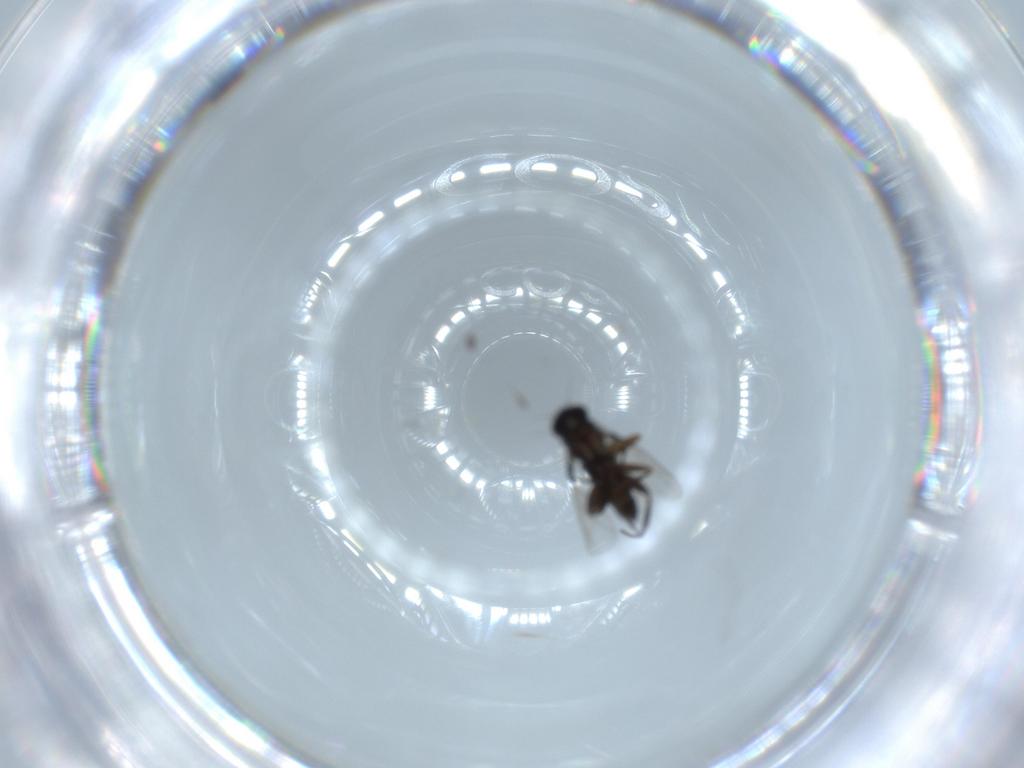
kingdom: Animalia
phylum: Arthropoda
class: Insecta
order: Diptera
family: Phoridae
